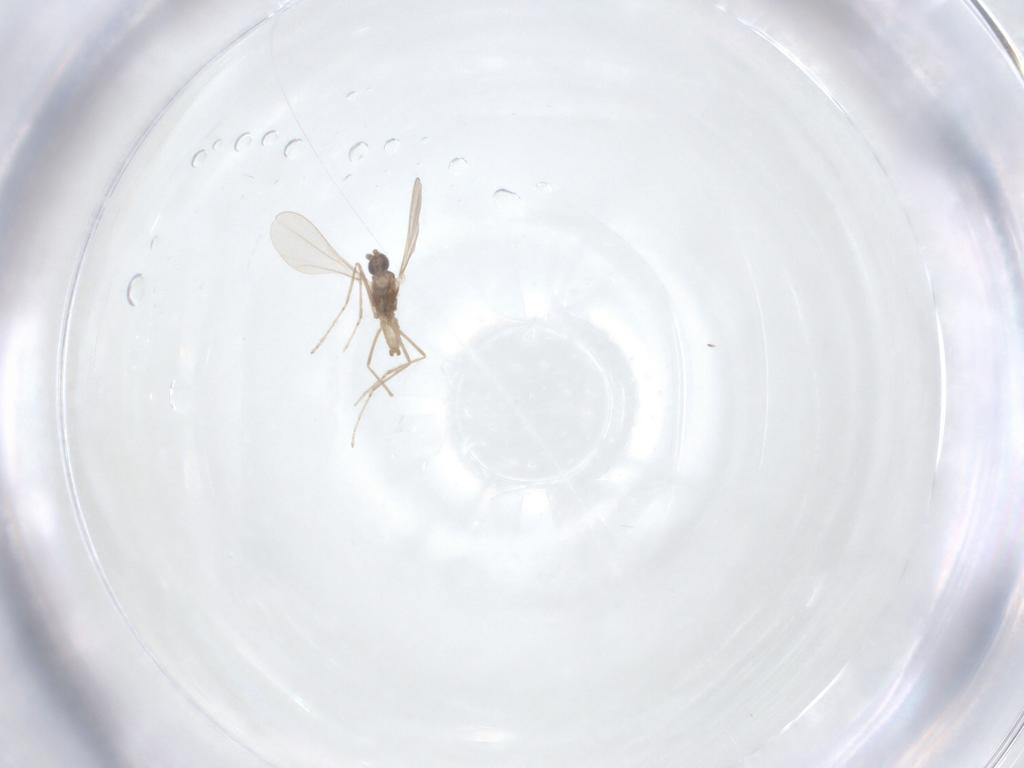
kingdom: Animalia
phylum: Arthropoda
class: Insecta
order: Diptera
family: Cecidomyiidae
